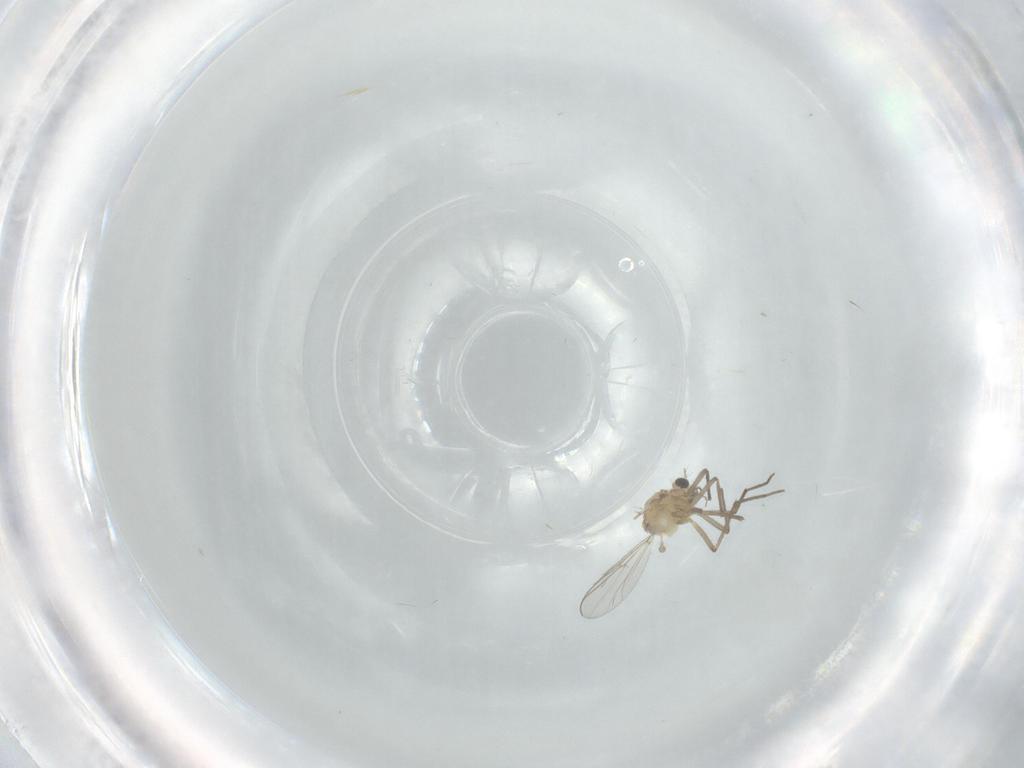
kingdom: Animalia
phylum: Arthropoda
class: Insecta
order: Diptera
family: Chironomidae
